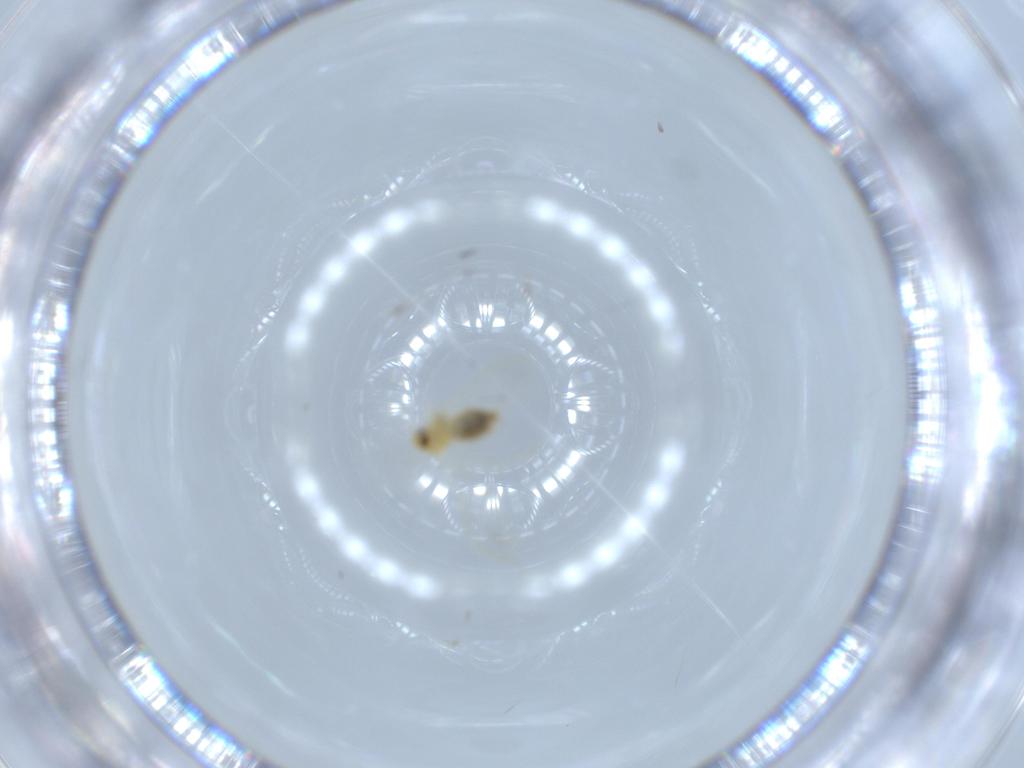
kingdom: Animalia
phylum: Arthropoda
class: Insecta
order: Hemiptera
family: Aleyrodidae
